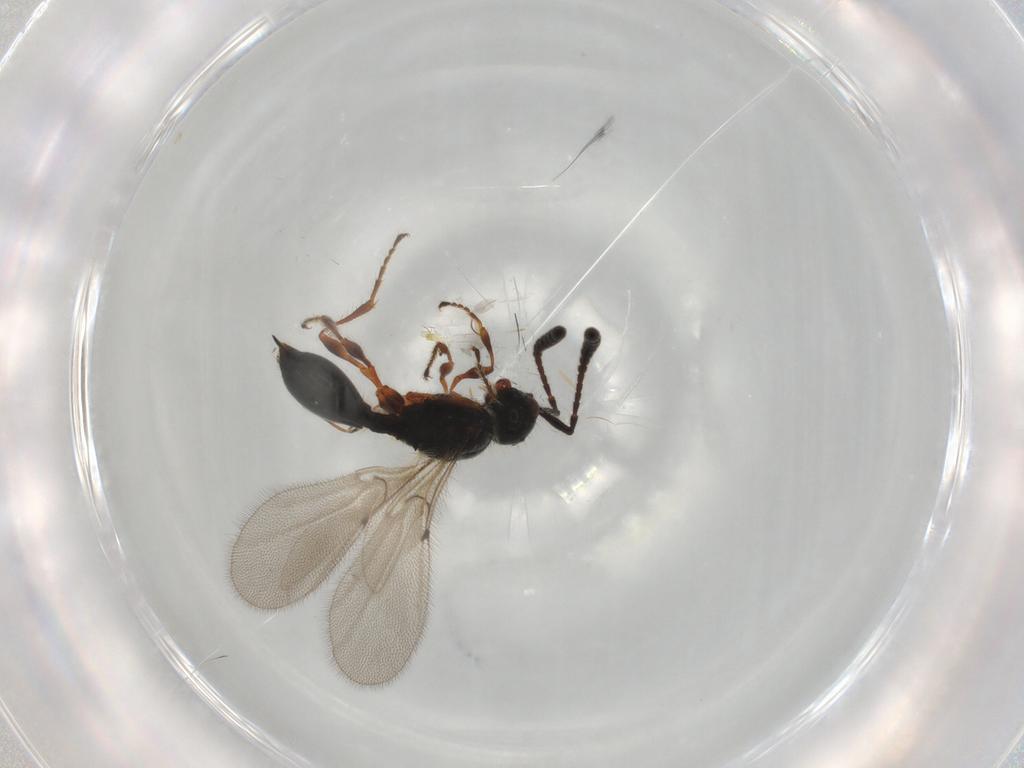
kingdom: Animalia
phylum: Arthropoda
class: Insecta
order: Hymenoptera
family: Diapriidae
